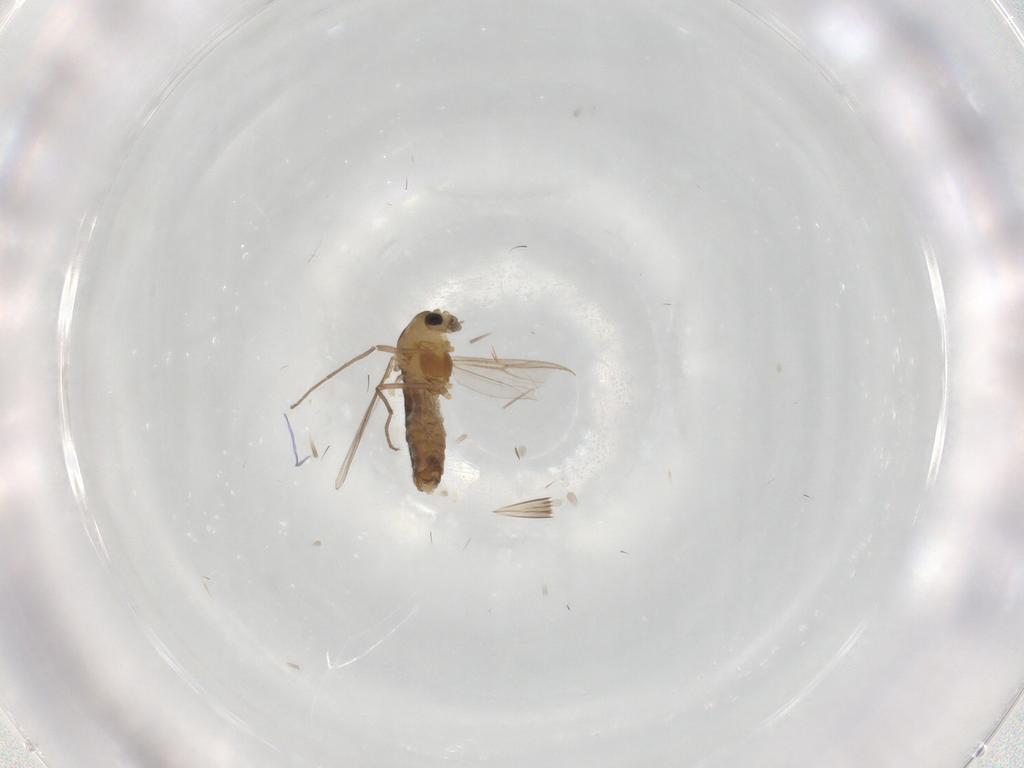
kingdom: Animalia
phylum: Arthropoda
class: Insecta
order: Diptera
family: Chironomidae
